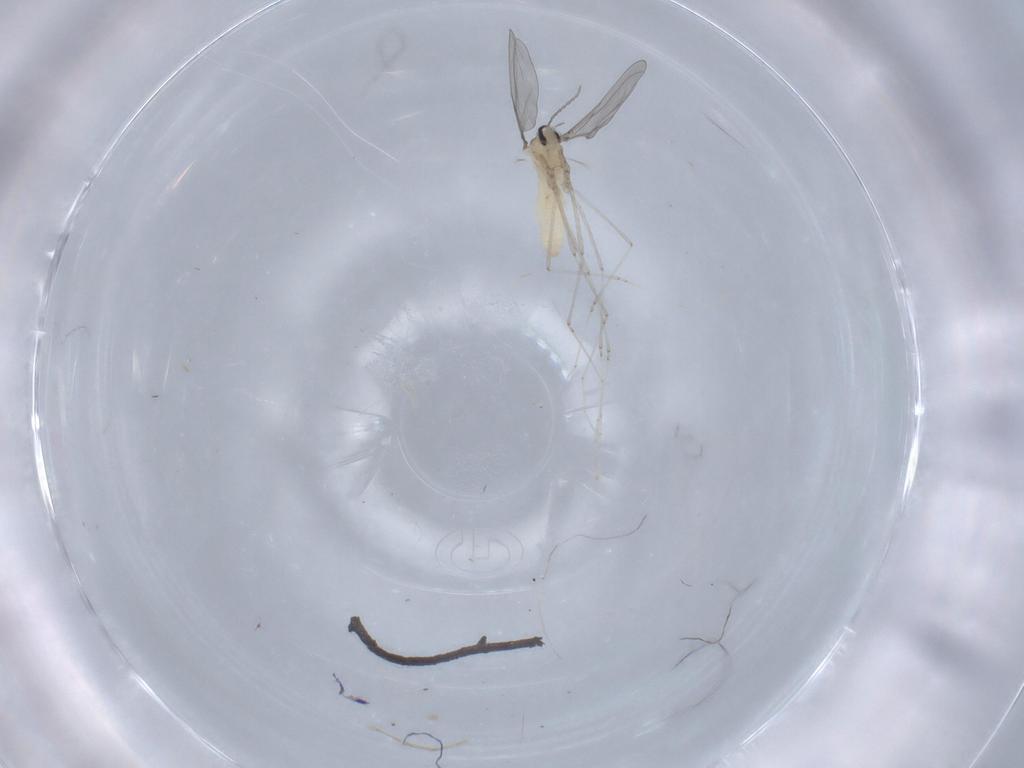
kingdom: Animalia
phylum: Arthropoda
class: Insecta
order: Diptera
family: Cecidomyiidae
